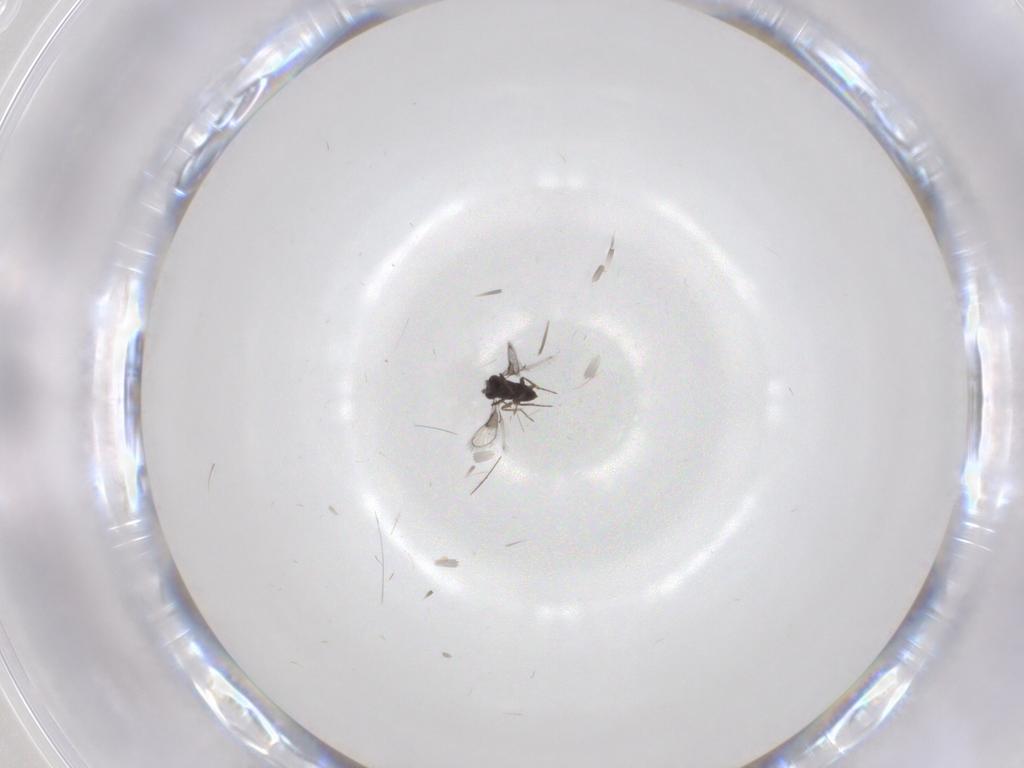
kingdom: Animalia
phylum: Arthropoda
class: Insecta
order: Hymenoptera
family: Trichogrammatidae
